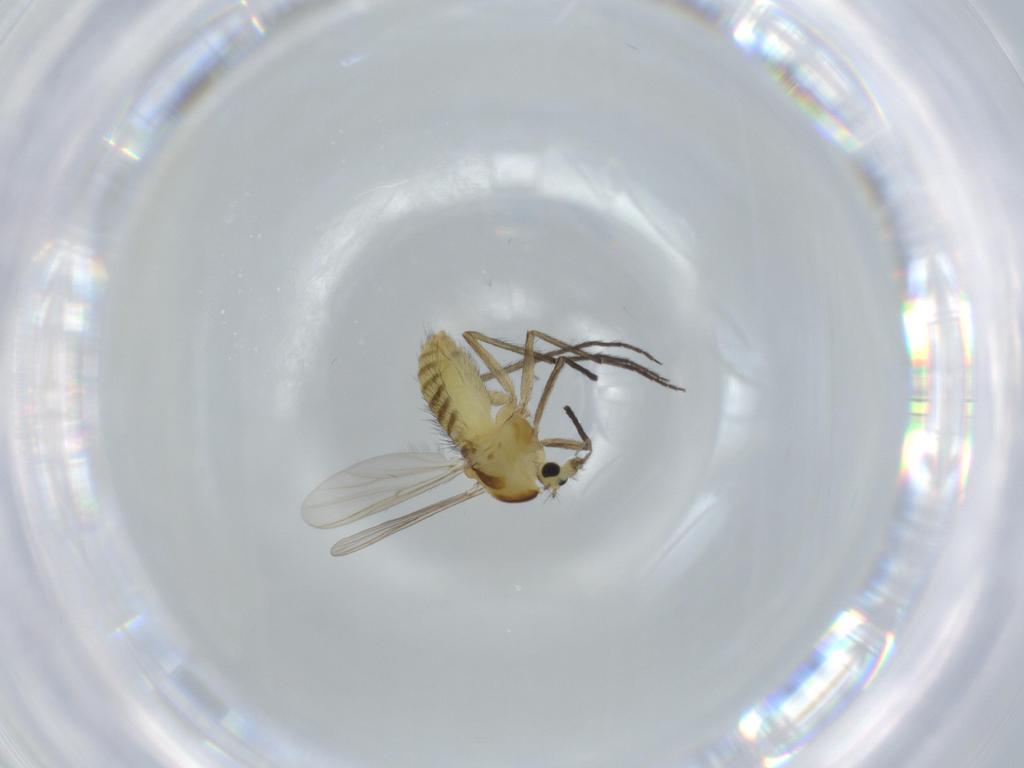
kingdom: Animalia
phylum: Arthropoda
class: Insecta
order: Diptera
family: Chironomidae
